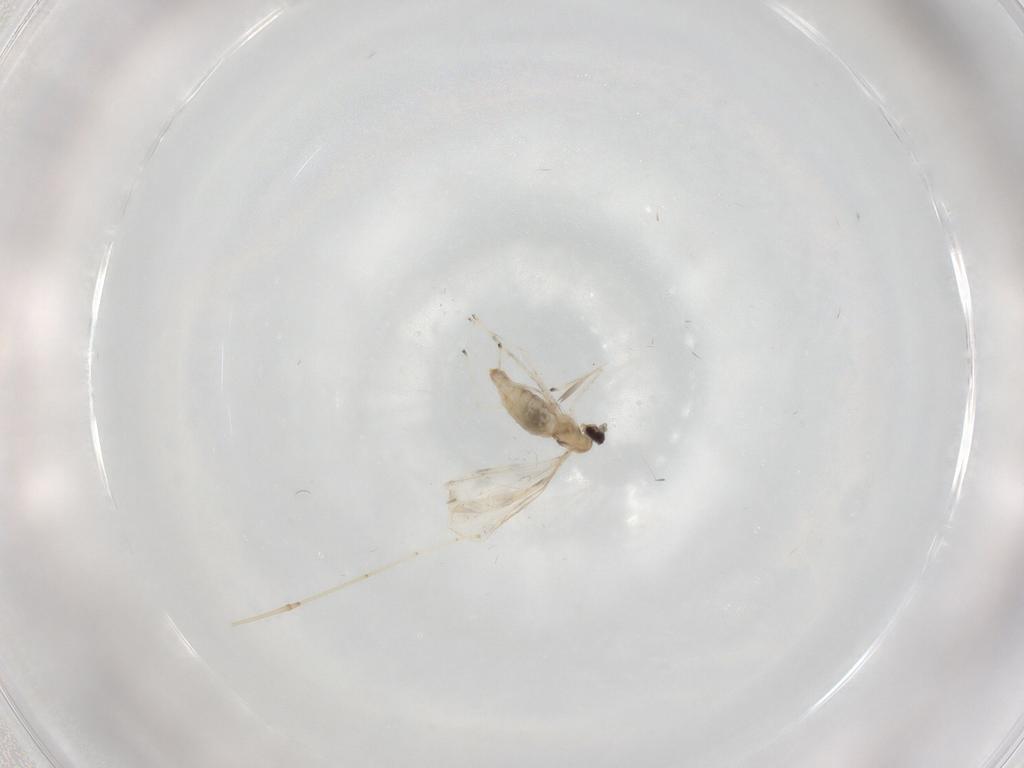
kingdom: Animalia
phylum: Arthropoda
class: Insecta
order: Diptera
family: Cecidomyiidae
